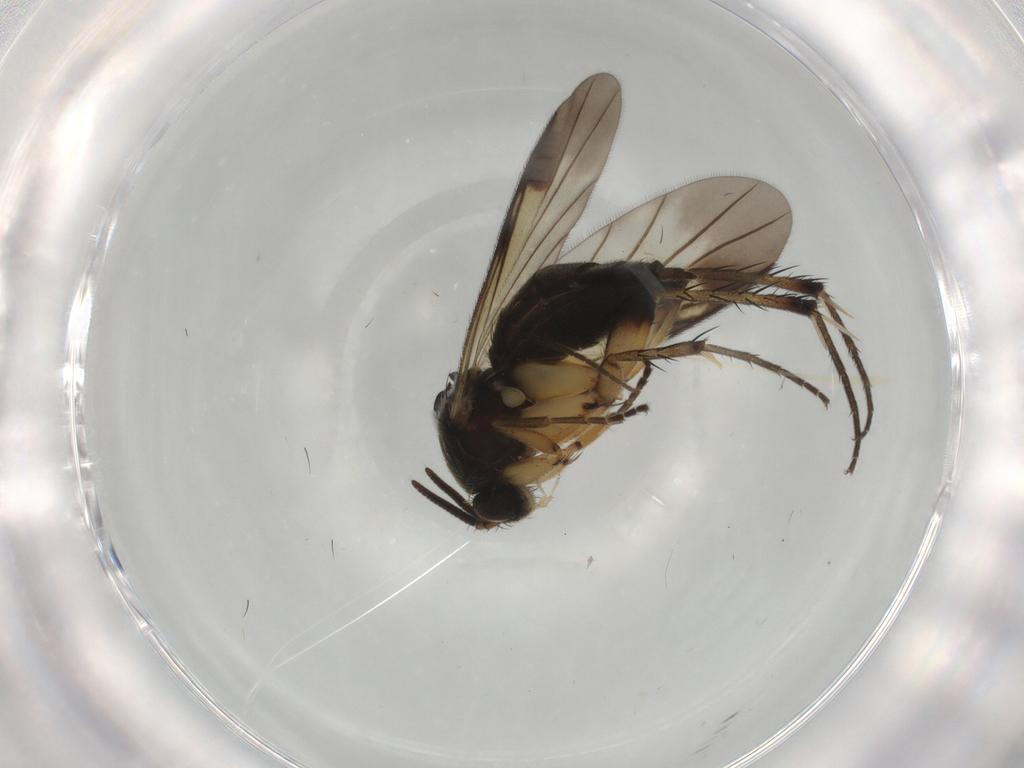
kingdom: Animalia
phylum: Arthropoda
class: Insecta
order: Diptera
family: Mycetophilidae
